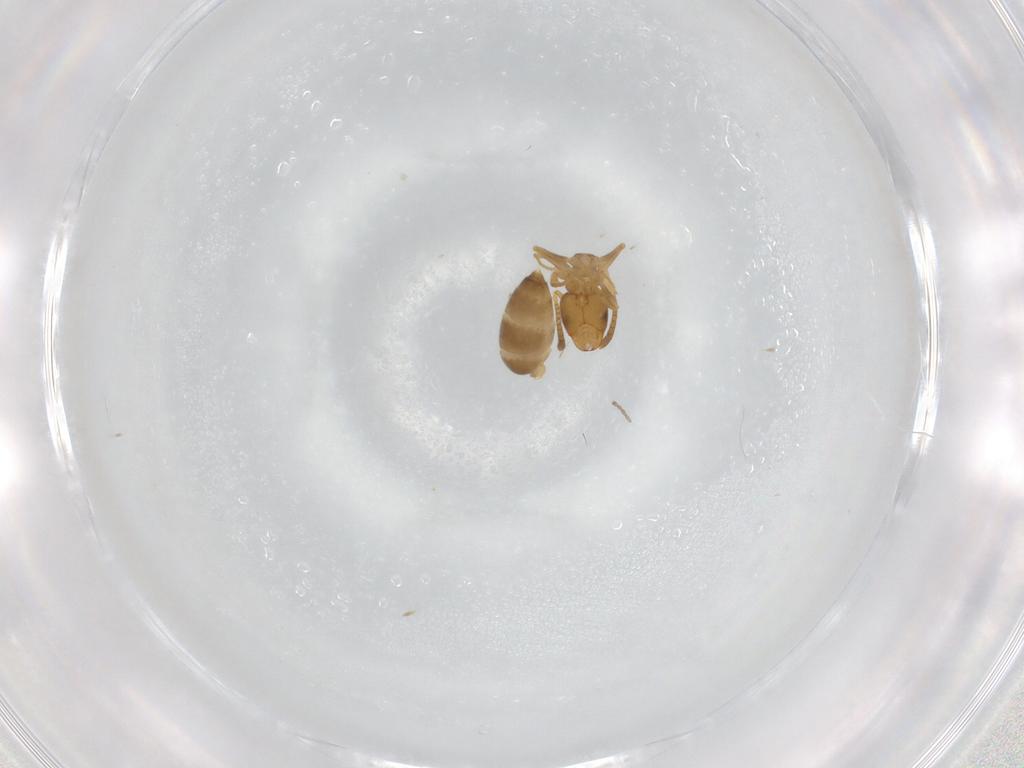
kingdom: Animalia
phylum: Arthropoda
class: Insecta
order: Hymenoptera
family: Formicidae
